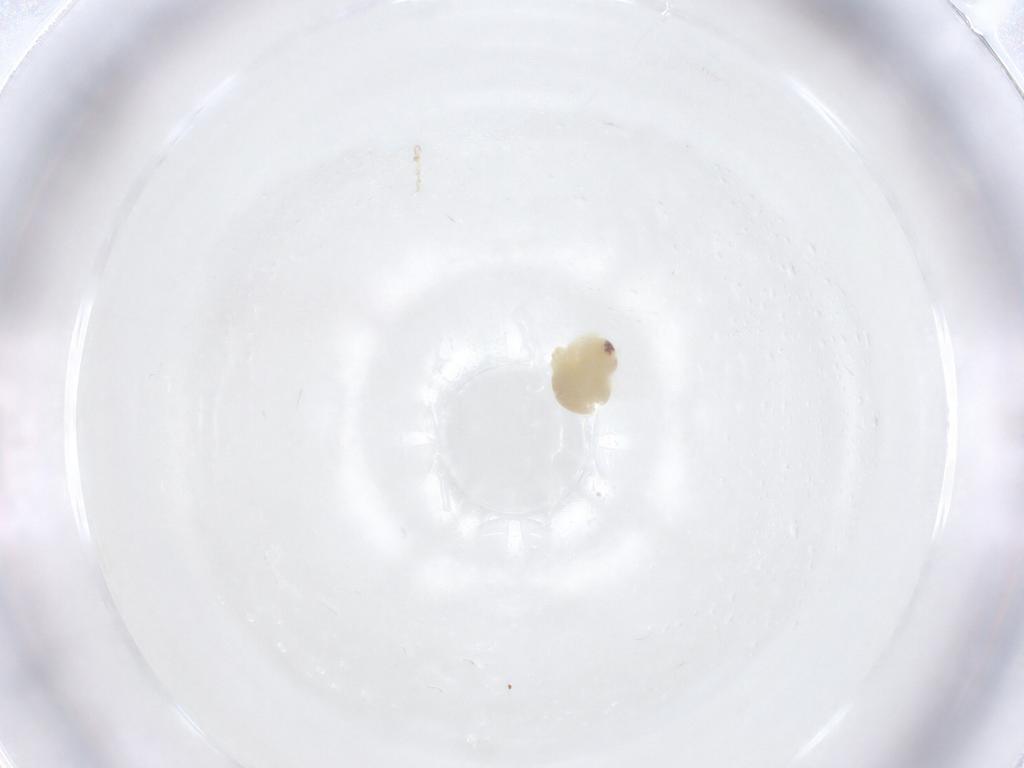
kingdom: Animalia
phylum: Arthropoda
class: Arachnida
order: Araneae
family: Pholcidae
